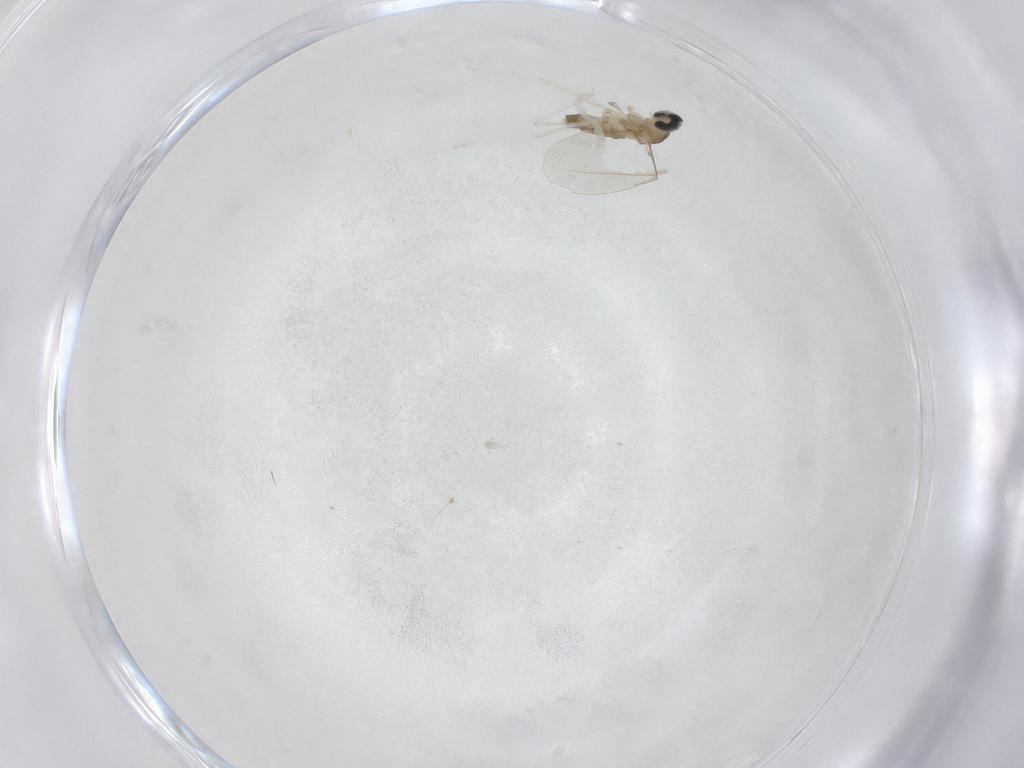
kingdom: Animalia
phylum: Arthropoda
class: Insecta
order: Diptera
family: Cecidomyiidae
